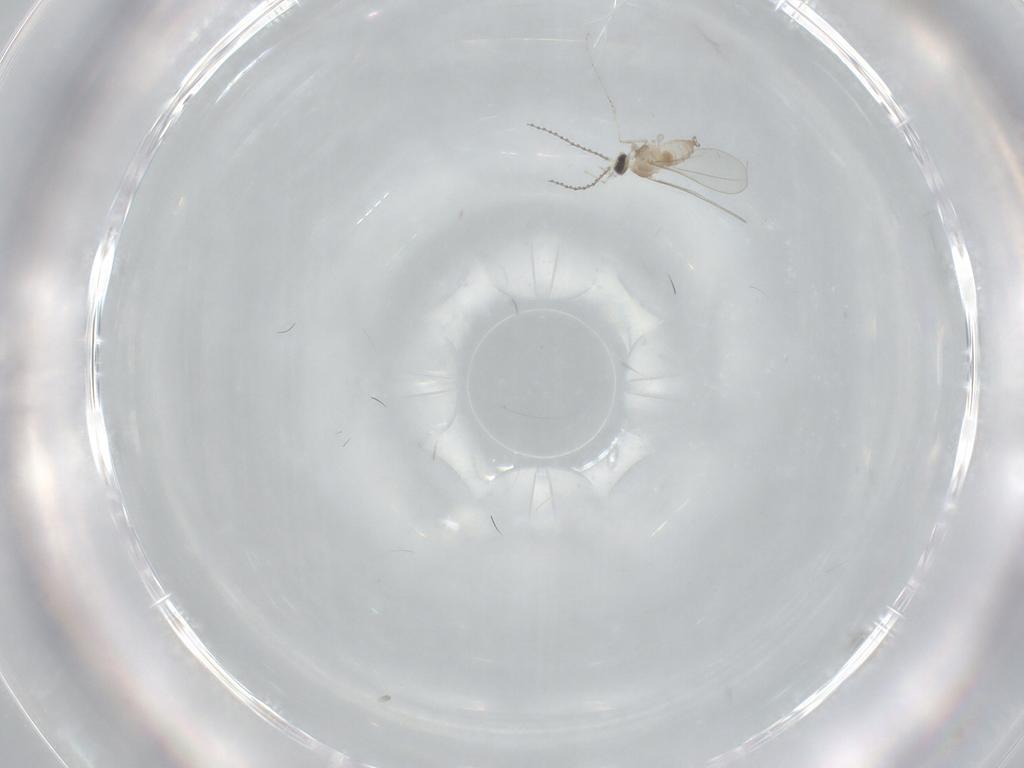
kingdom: Animalia
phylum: Arthropoda
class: Insecta
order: Diptera
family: Cecidomyiidae
